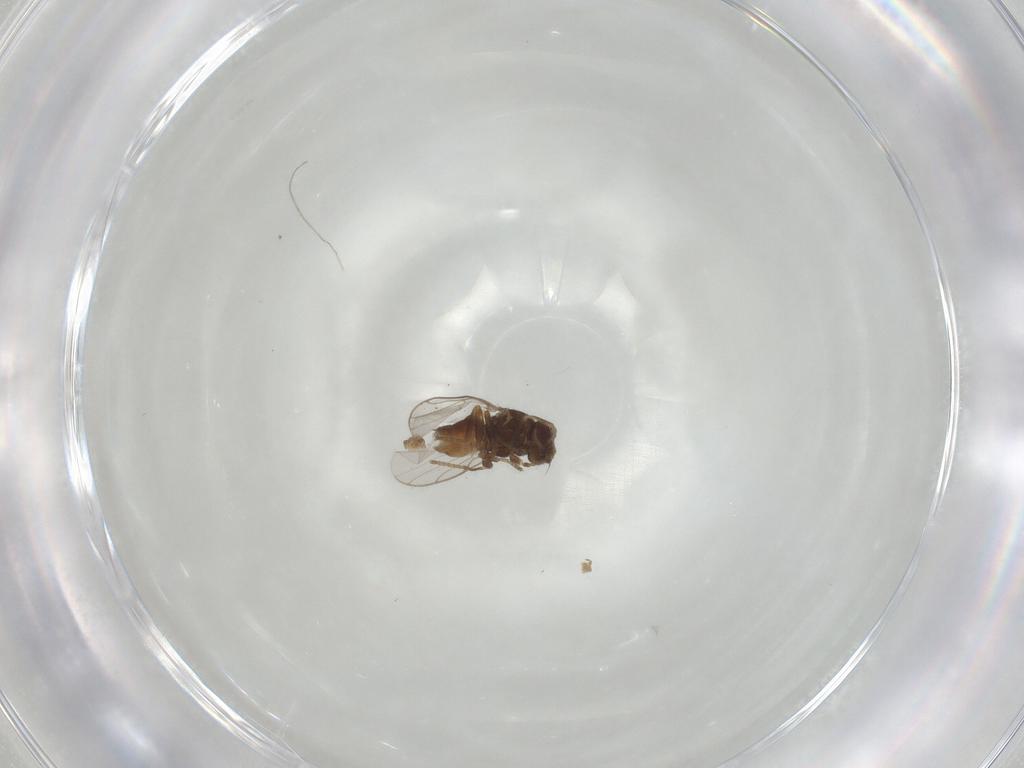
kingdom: Animalia
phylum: Arthropoda
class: Insecta
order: Diptera
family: Chloropidae
